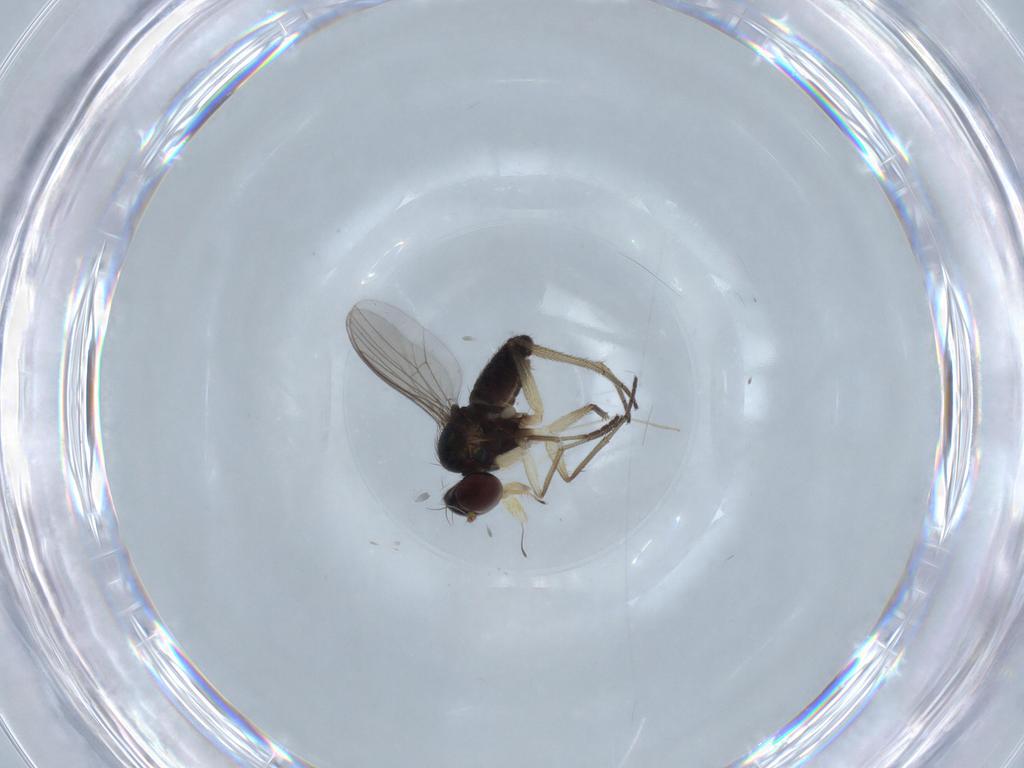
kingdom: Animalia
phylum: Arthropoda
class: Insecta
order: Diptera
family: Dolichopodidae
